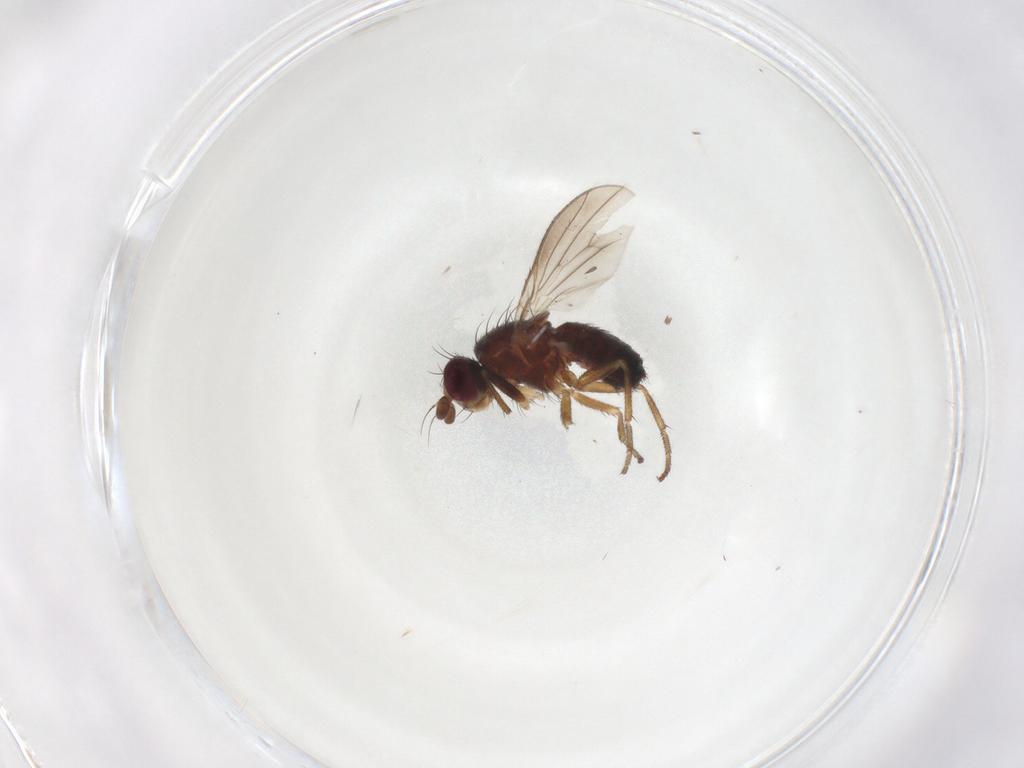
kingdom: Animalia
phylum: Arthropoda
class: Insecta
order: Diptera
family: Heleomyzidae
